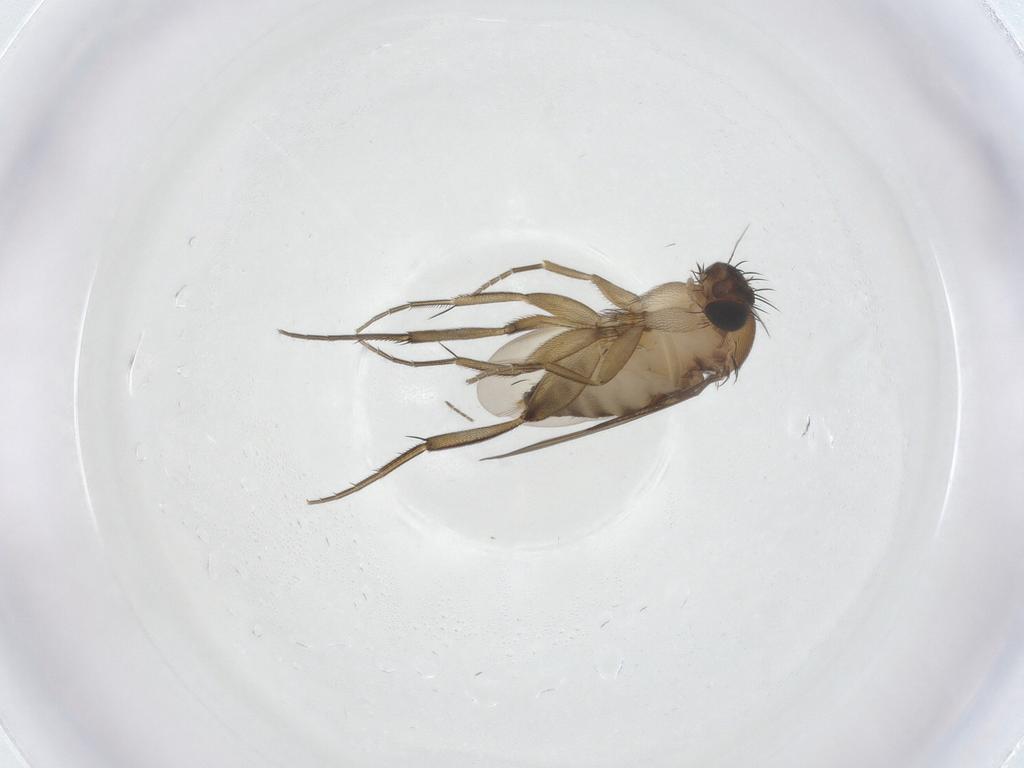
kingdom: Animalia
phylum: Arthropoda
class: Insecta
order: Diptera
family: Phoridae
